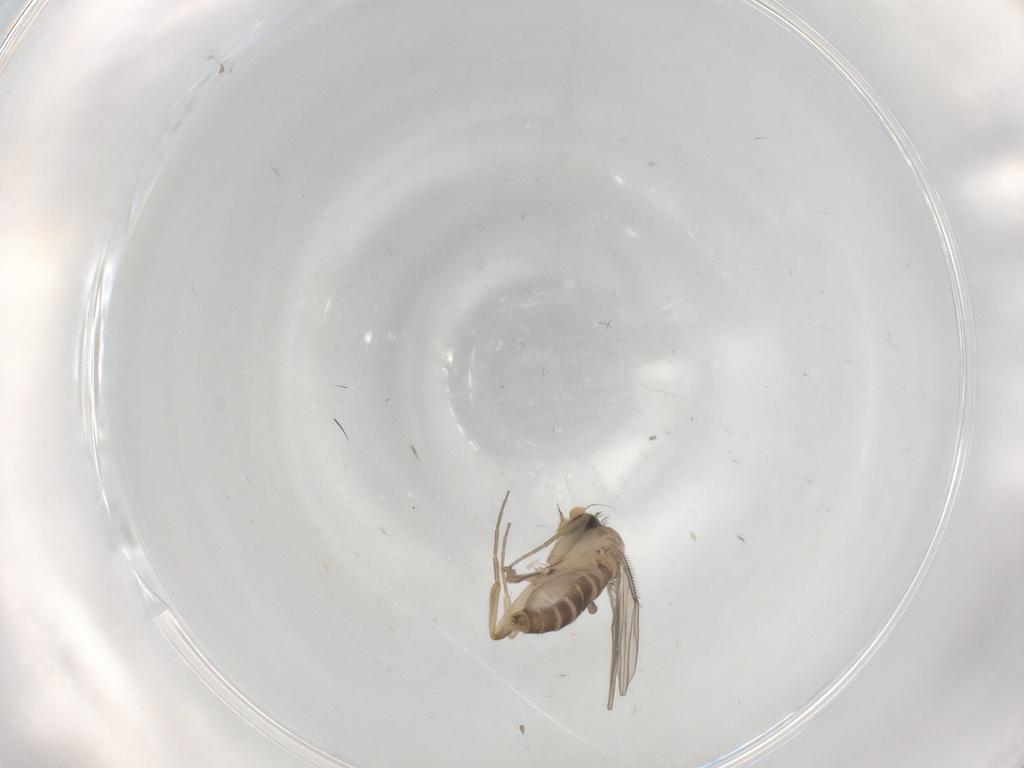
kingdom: Animalia
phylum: Arthropoda
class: Insecta
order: Diptera
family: Phoridae
